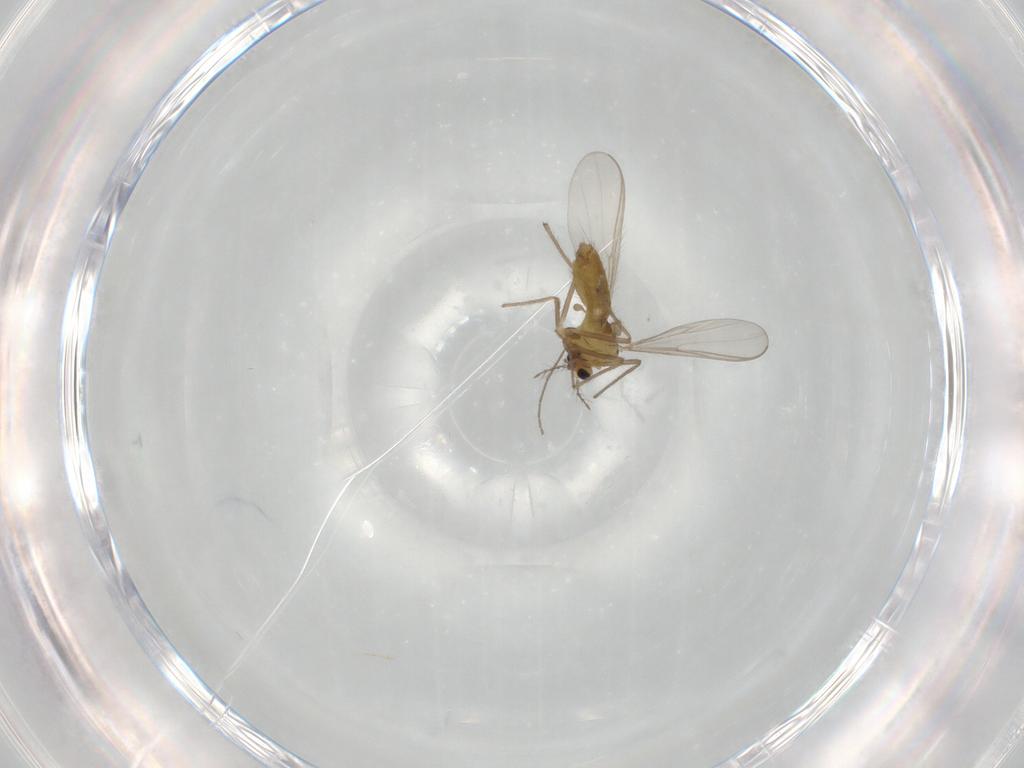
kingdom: Animalia
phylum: Arthropoda
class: Insecta
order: Diptera
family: Chironomidae
